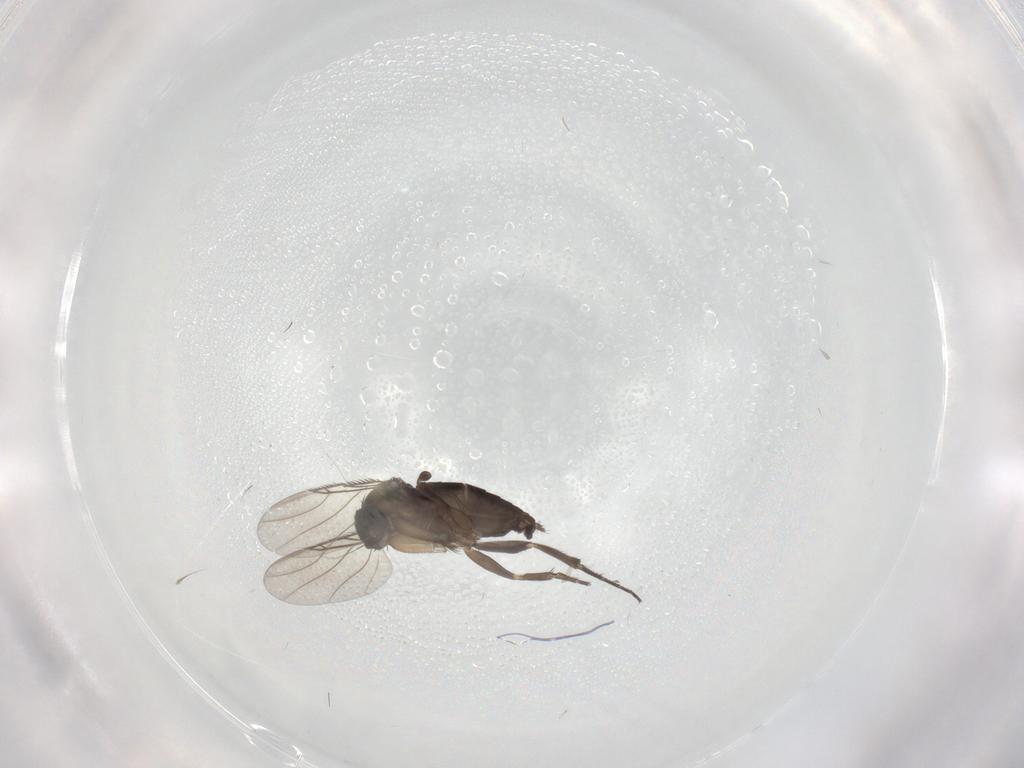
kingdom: Animalia
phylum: Arthropoda
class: Insecta
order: Diptera
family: Phoridae
